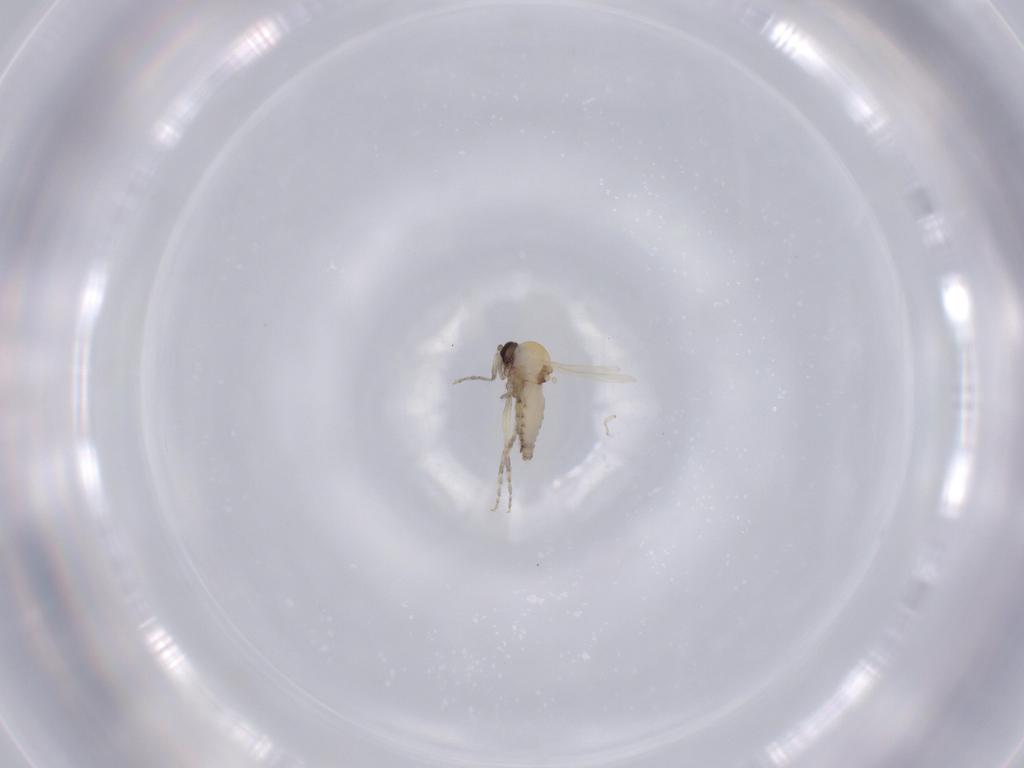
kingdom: Animalia
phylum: Arthropoda
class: Insecta
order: Diptera
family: Ceratopogonidae
